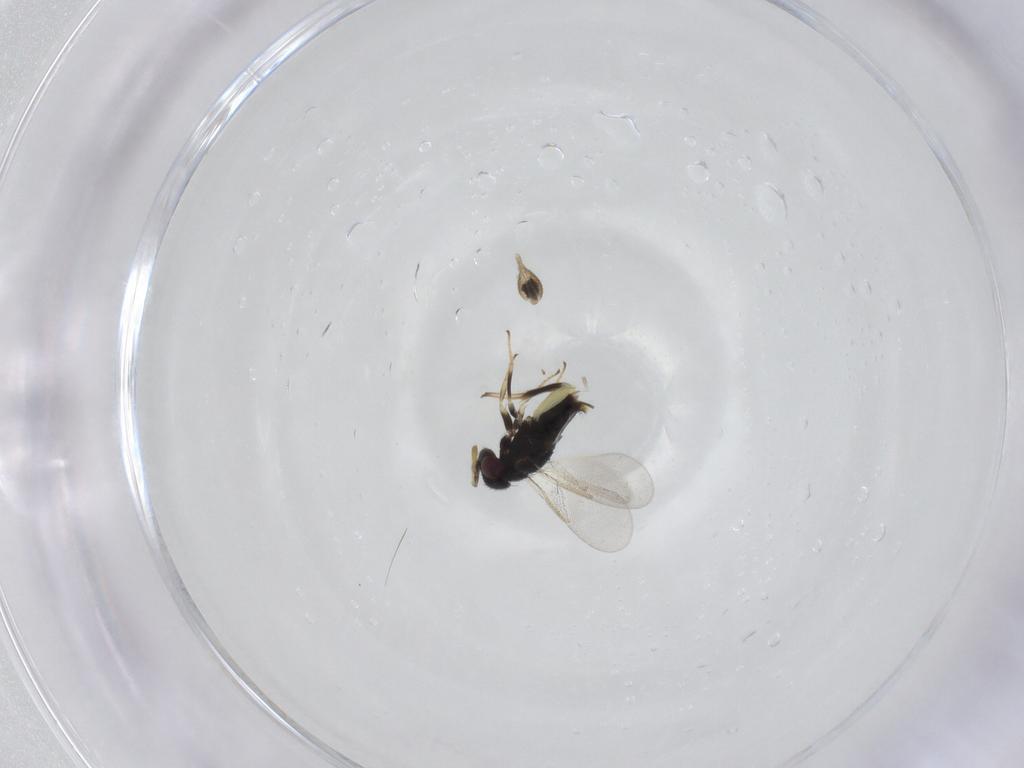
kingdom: Animalia
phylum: Arthropoda
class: Insecta
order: Hymenoptera
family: Aphelinidae
